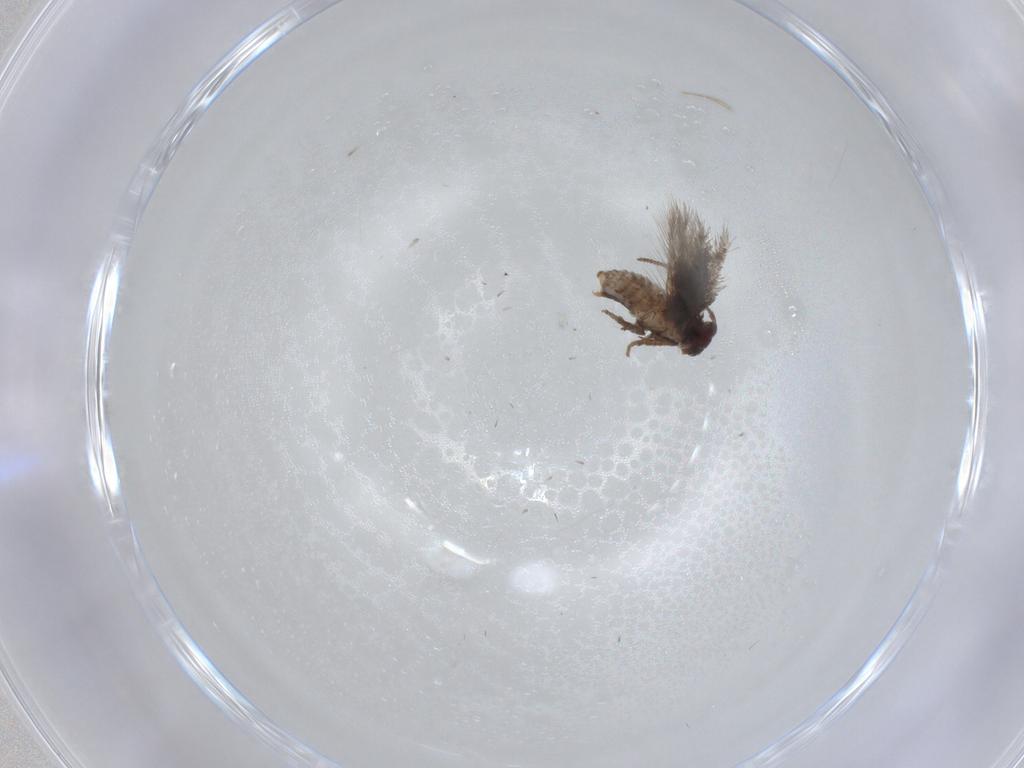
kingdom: Animalia
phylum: Arthropoda
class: Insecta
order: Lepidoptera
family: Nepticulidae
